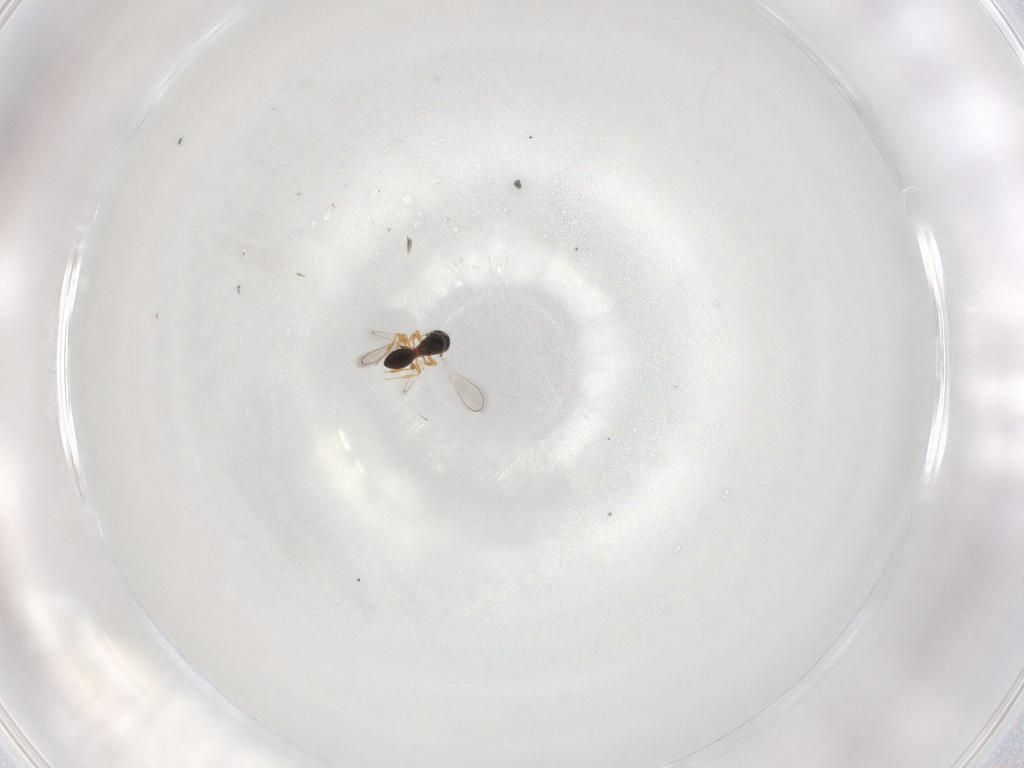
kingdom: Animalia
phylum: Arthropoda
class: Insecta
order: Hymenoptera
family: Platygastridae
